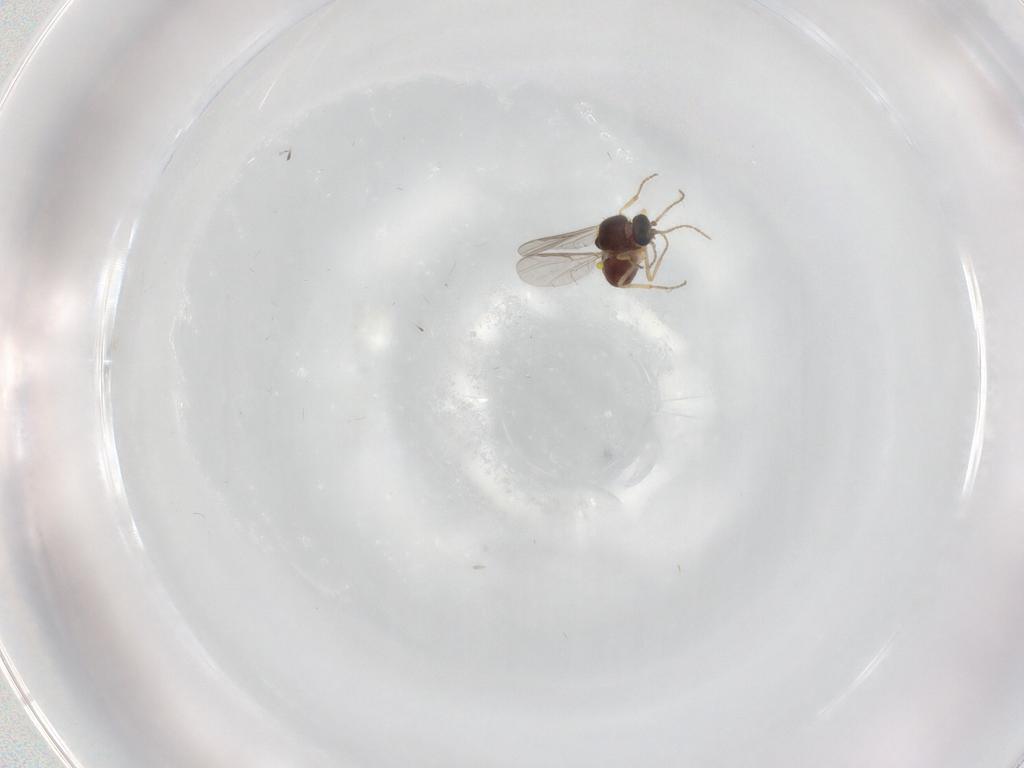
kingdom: Animalia
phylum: Arthropoda
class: Insecta
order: Diptera
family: Ceratopogonidae
